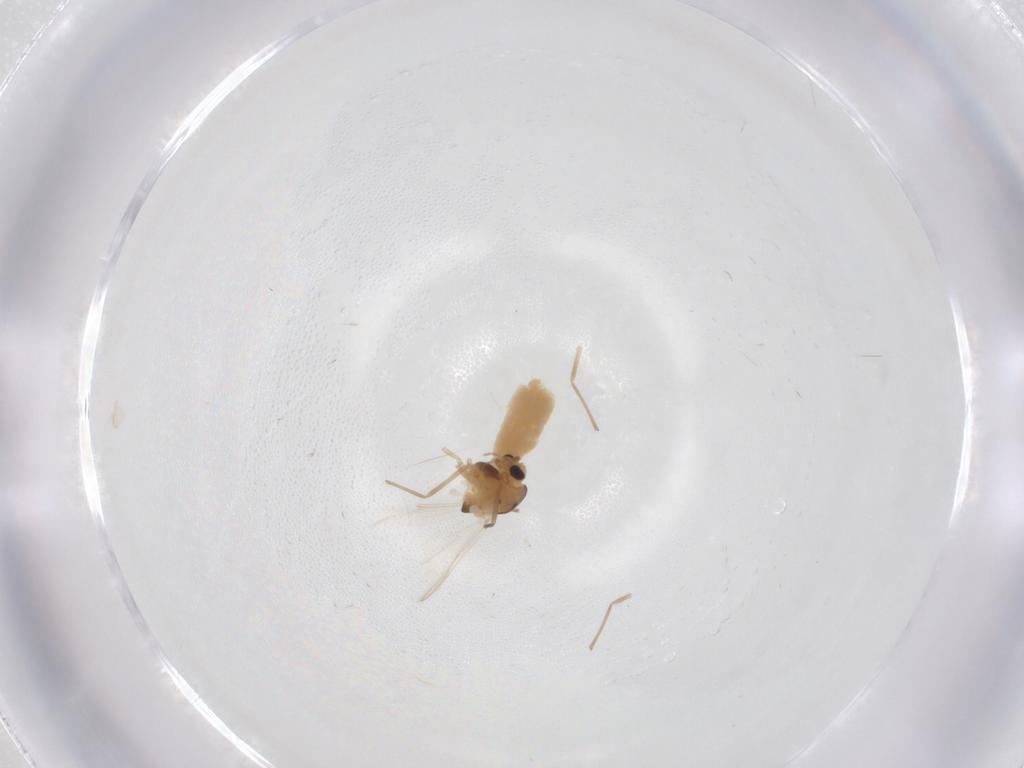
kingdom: Animalia
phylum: Arthropoda
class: Insecta
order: Diptera
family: Chironomidae
